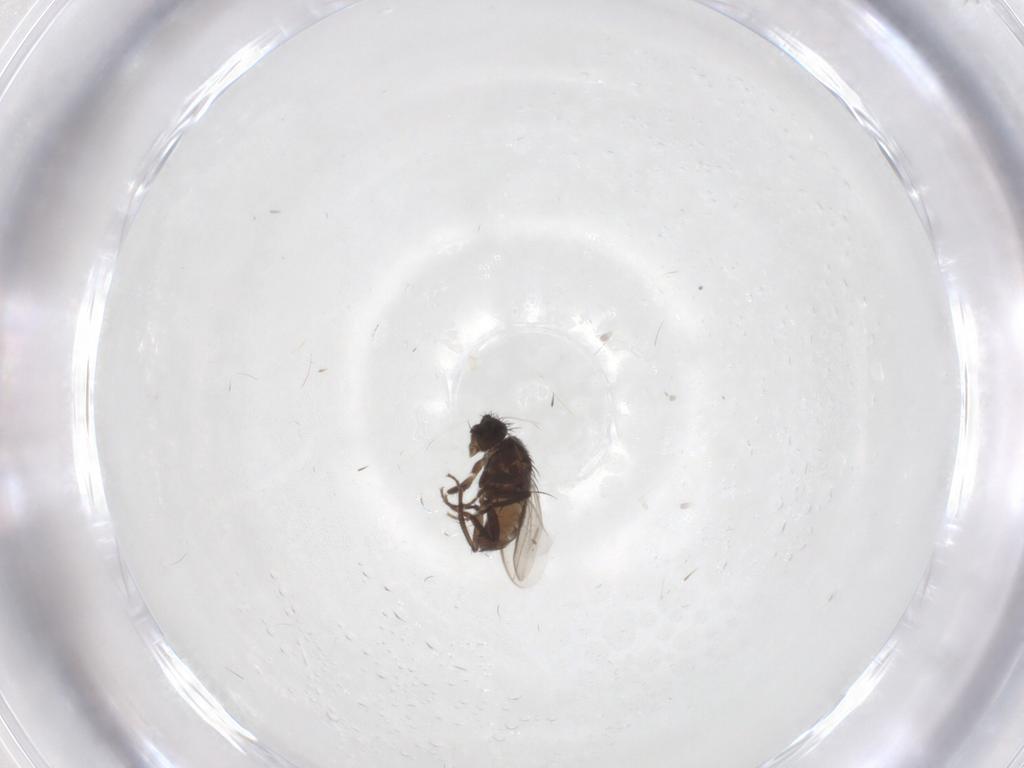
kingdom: Animalia
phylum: Arthropoda
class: Insecta
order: Diptera
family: Sphaeroceridae
